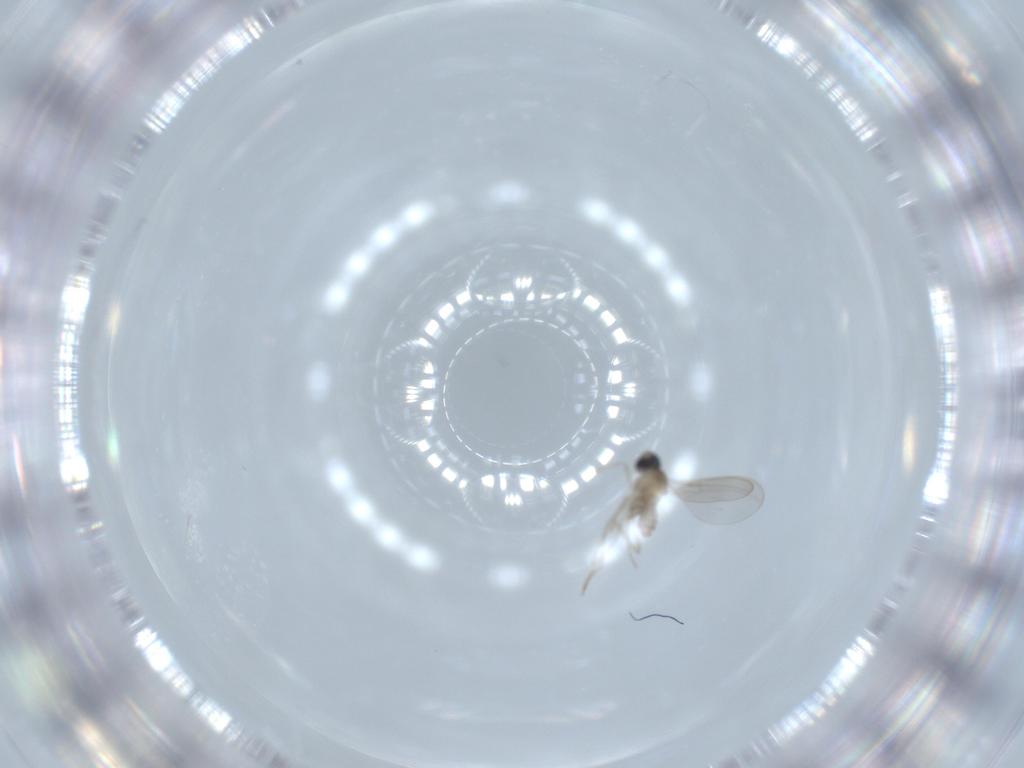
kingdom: Animalia
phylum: Arthropoda
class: Insecta
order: Diptera
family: Cecidomyiidae
